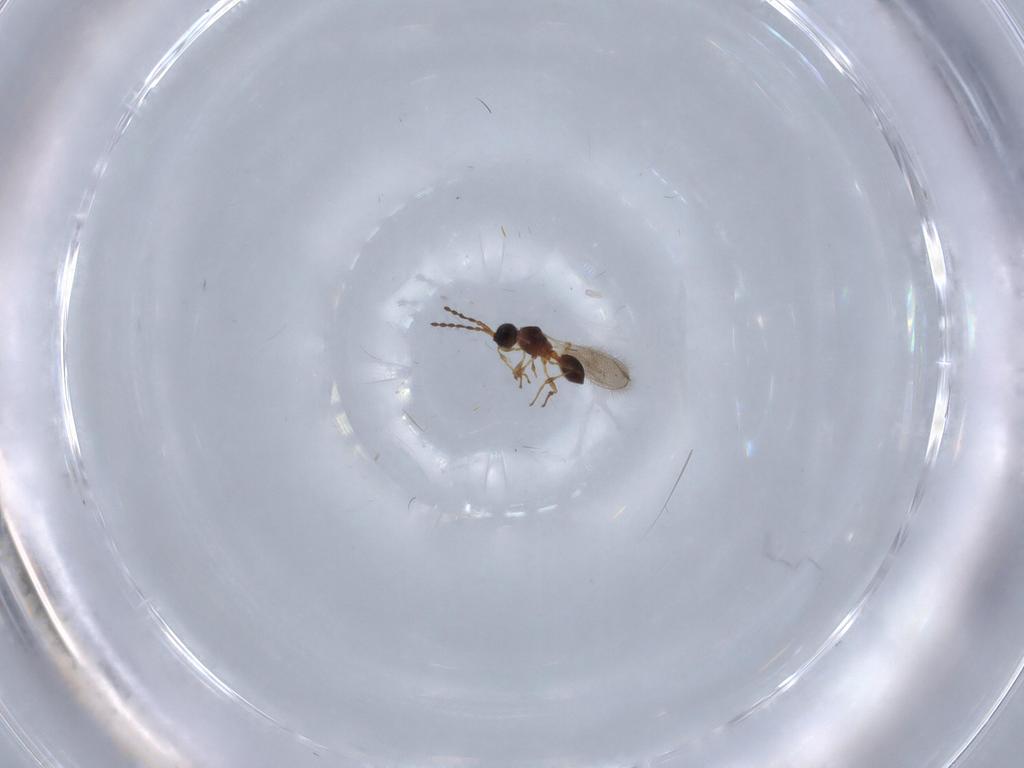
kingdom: Animalia
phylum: Arthropoda
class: Insecta
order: Hymenoptera
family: Diapriidae
